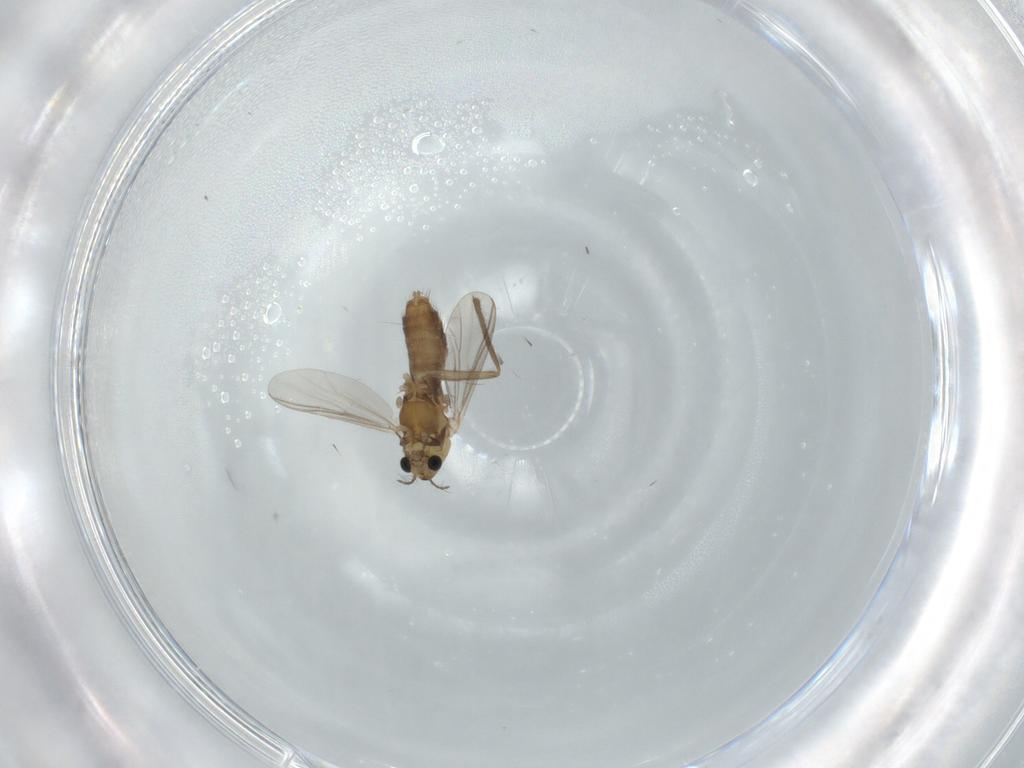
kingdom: Animalia
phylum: Arthropoda
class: Insecta
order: Diptera
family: Chironomidae
